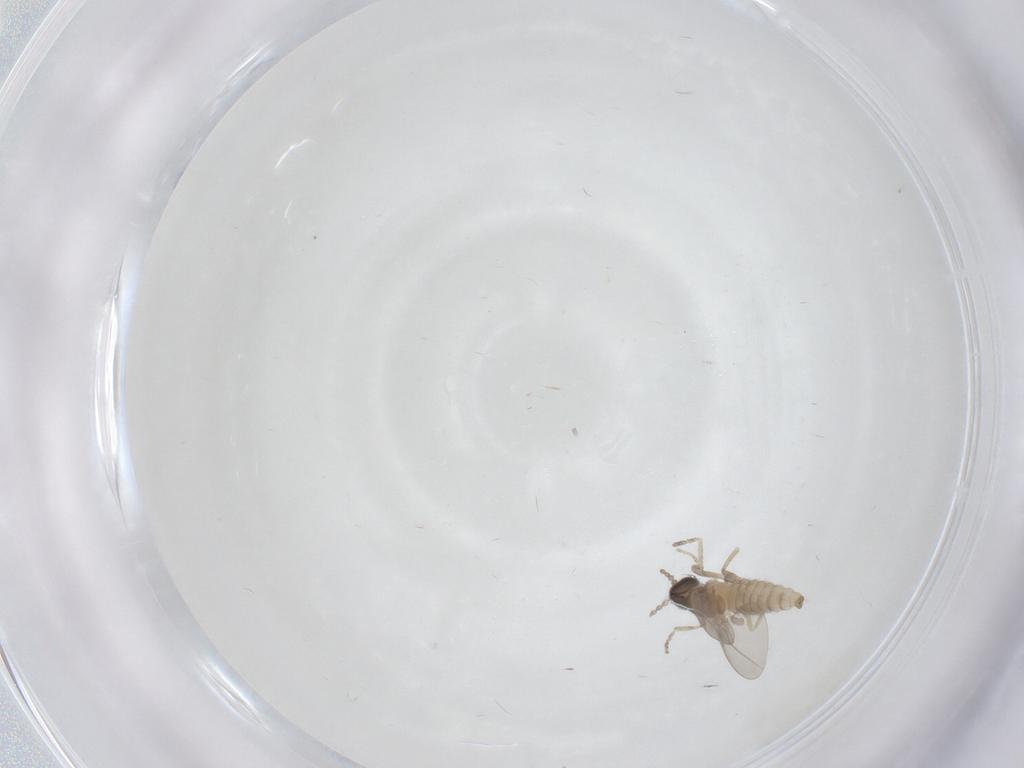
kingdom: Animalia
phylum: Arthropoda
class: Insecta
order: Diptera
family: Cecidomyiidae
